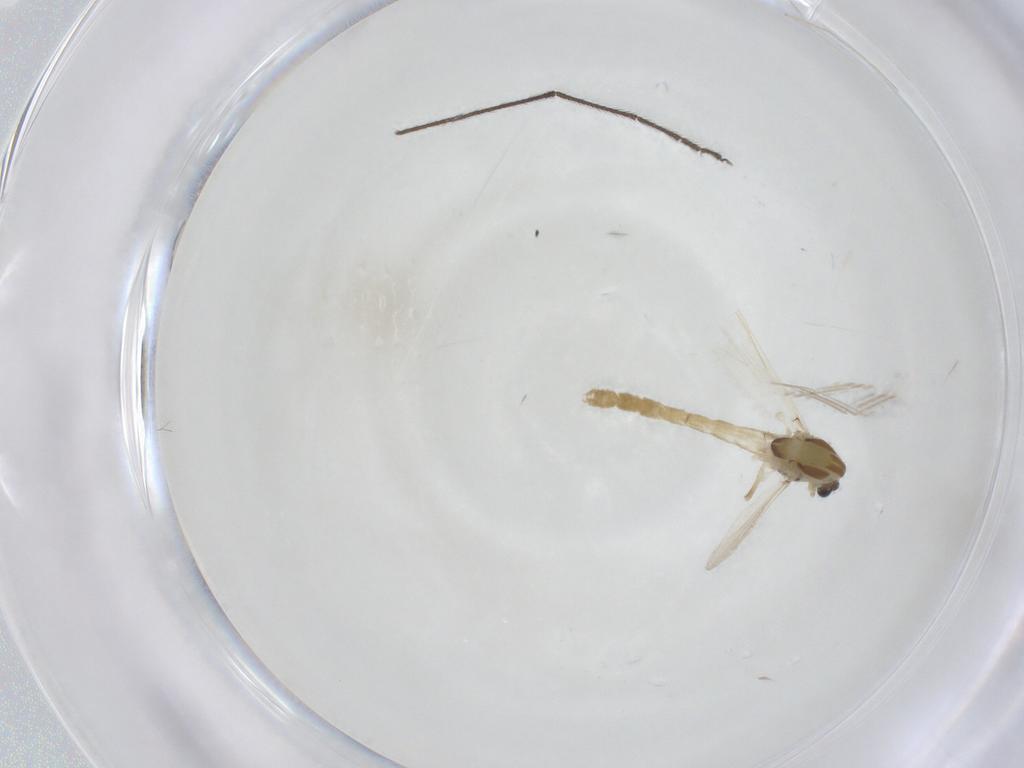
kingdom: Animalia
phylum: Arthropoda
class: Insecta
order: Diptera
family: Chironomidae
